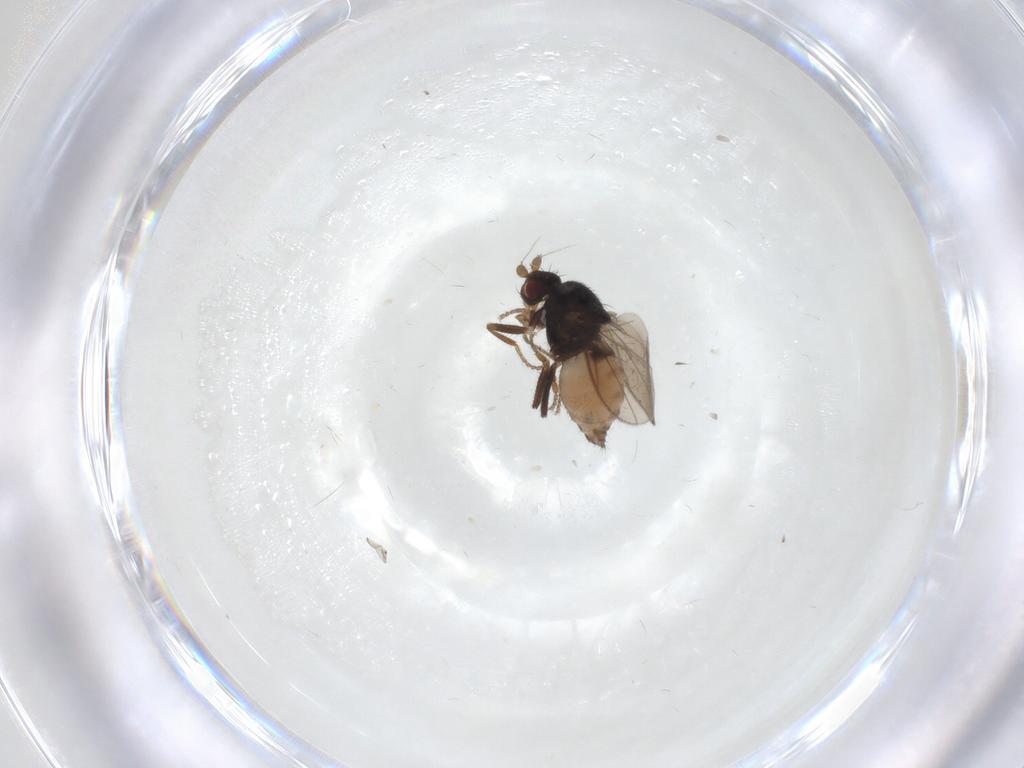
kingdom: Animalia
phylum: Arthropoda
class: Insecta
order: Diptera
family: Sphaeroceridae
